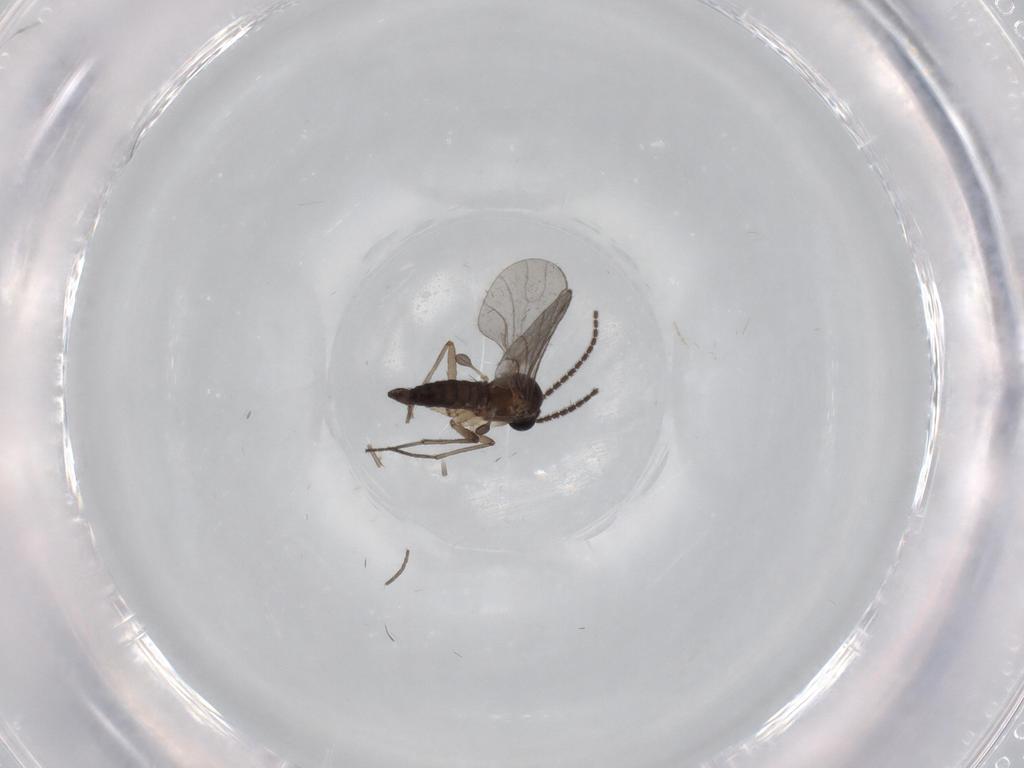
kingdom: Animalia
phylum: Arthropoda
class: Insecta
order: Diptera
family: Sciaridae
